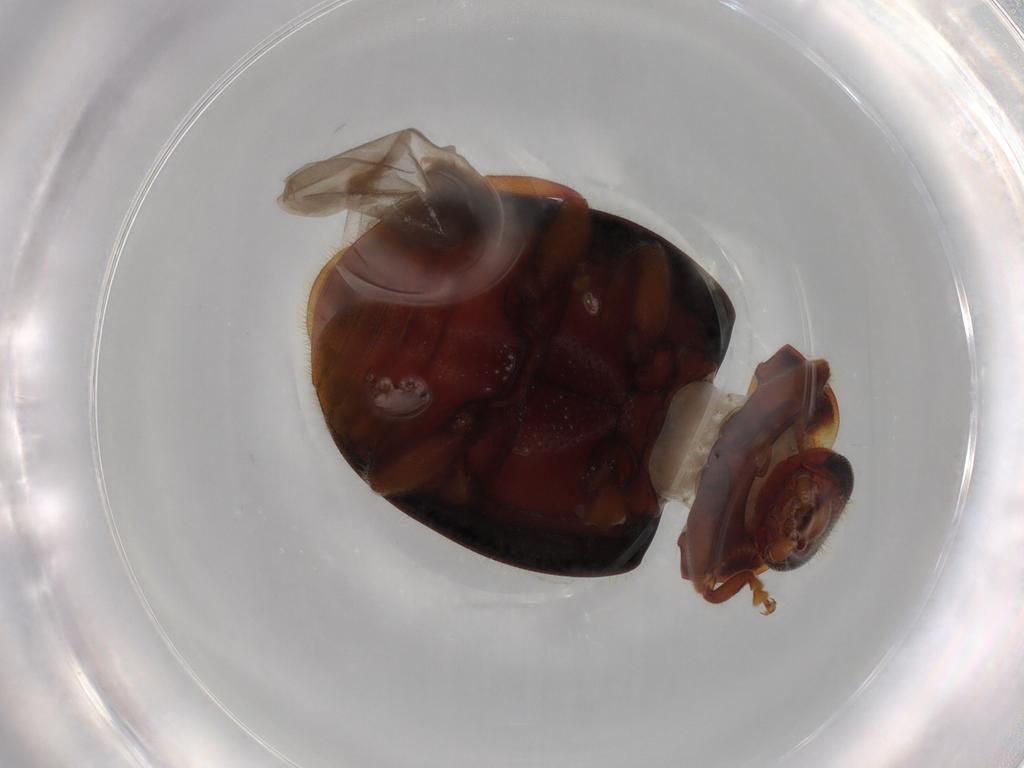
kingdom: Animalia
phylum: Arthropoda
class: Insecta
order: Coleoptera
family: Coccinellidae
